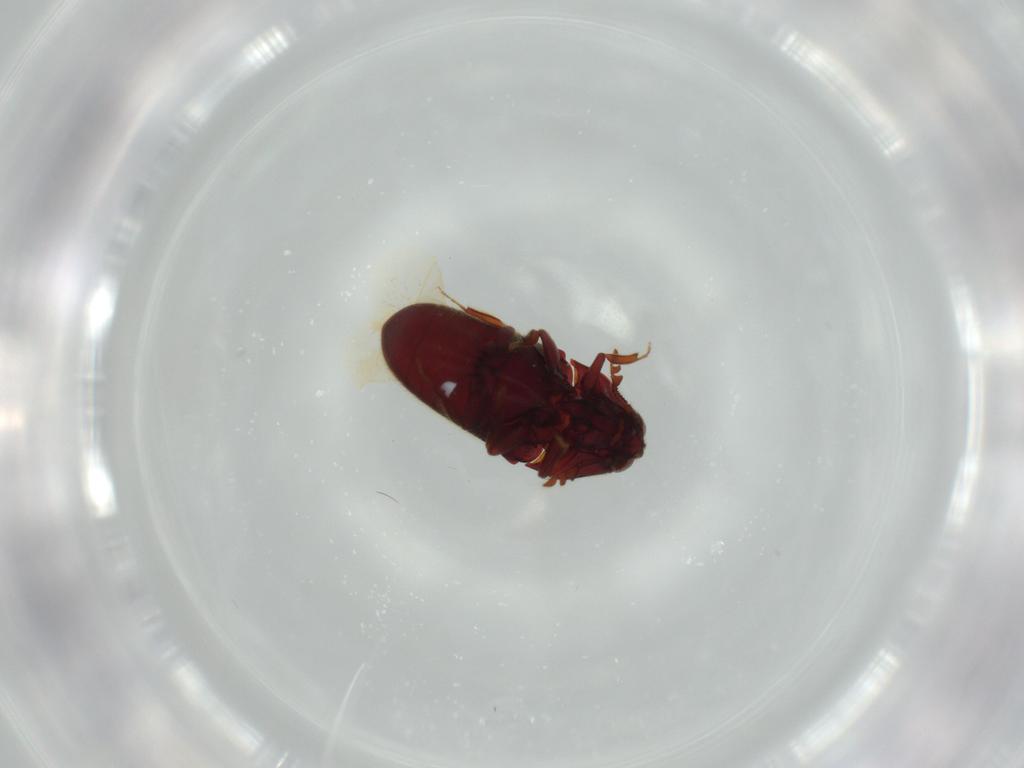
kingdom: Animalia
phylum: Arthropoda
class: Insecta
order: Coleoptera
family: Throscidae
